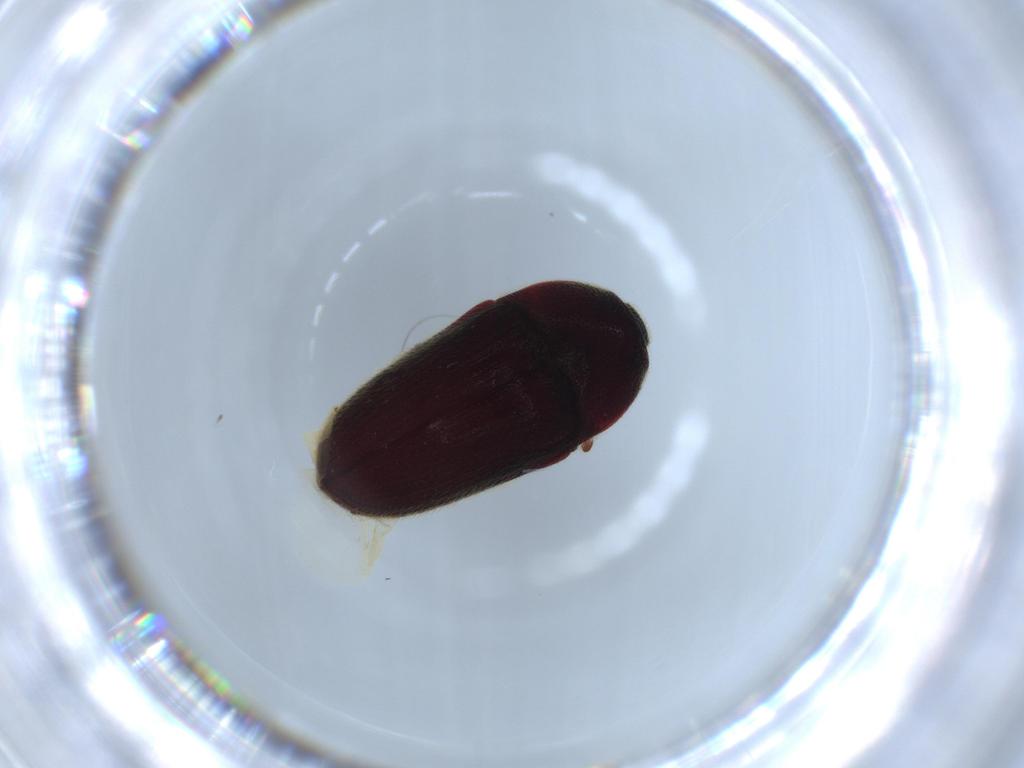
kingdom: Animalia
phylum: Arthropoda
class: Insecta
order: Coleoptera
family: Throscidae
